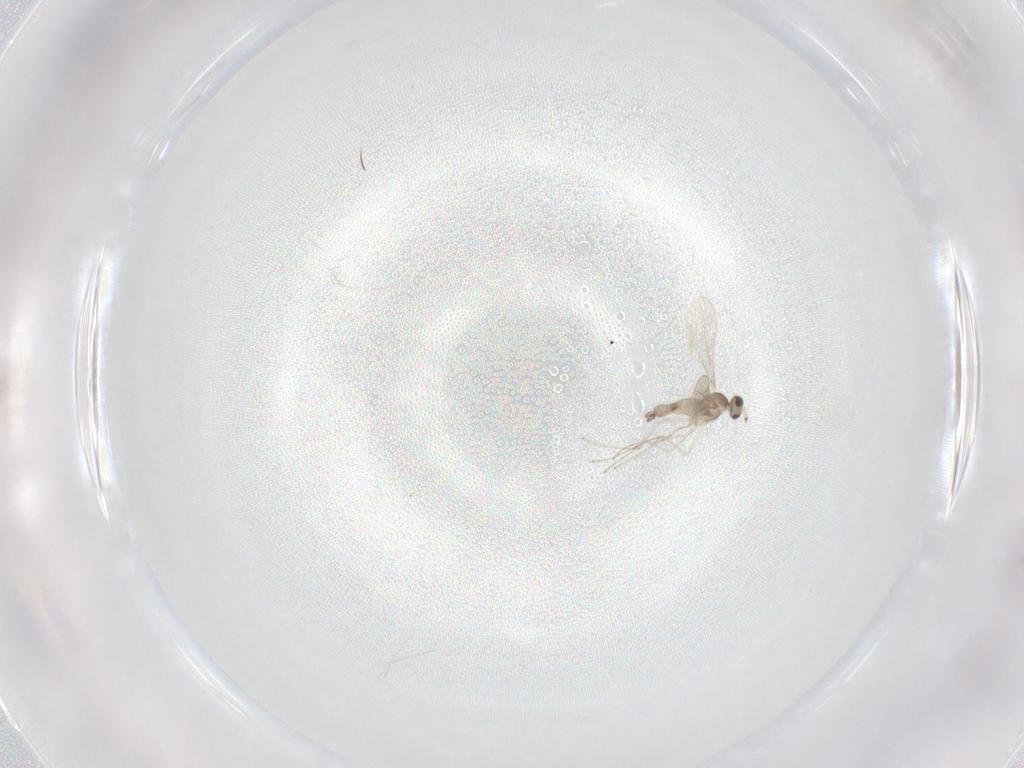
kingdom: Animalia
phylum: Arthropoda
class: Insecta
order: Diptera
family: Cecidomyiidae
